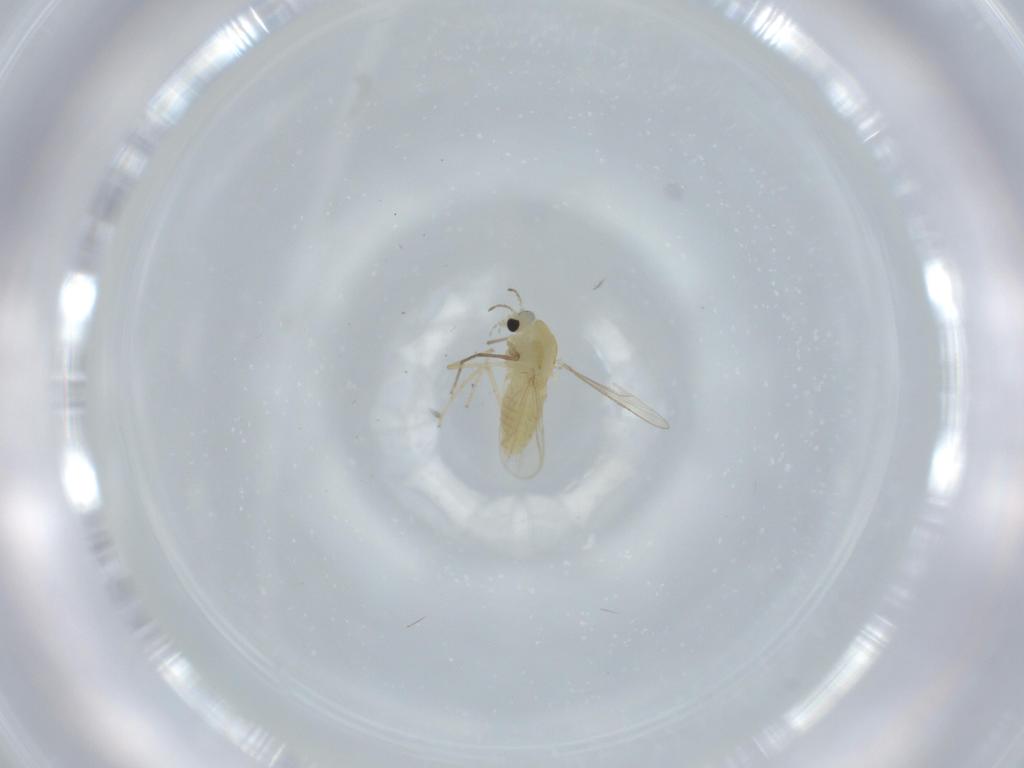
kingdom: Animalia
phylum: Arthropoda
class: Insecta
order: Diptera
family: Chironomidae
